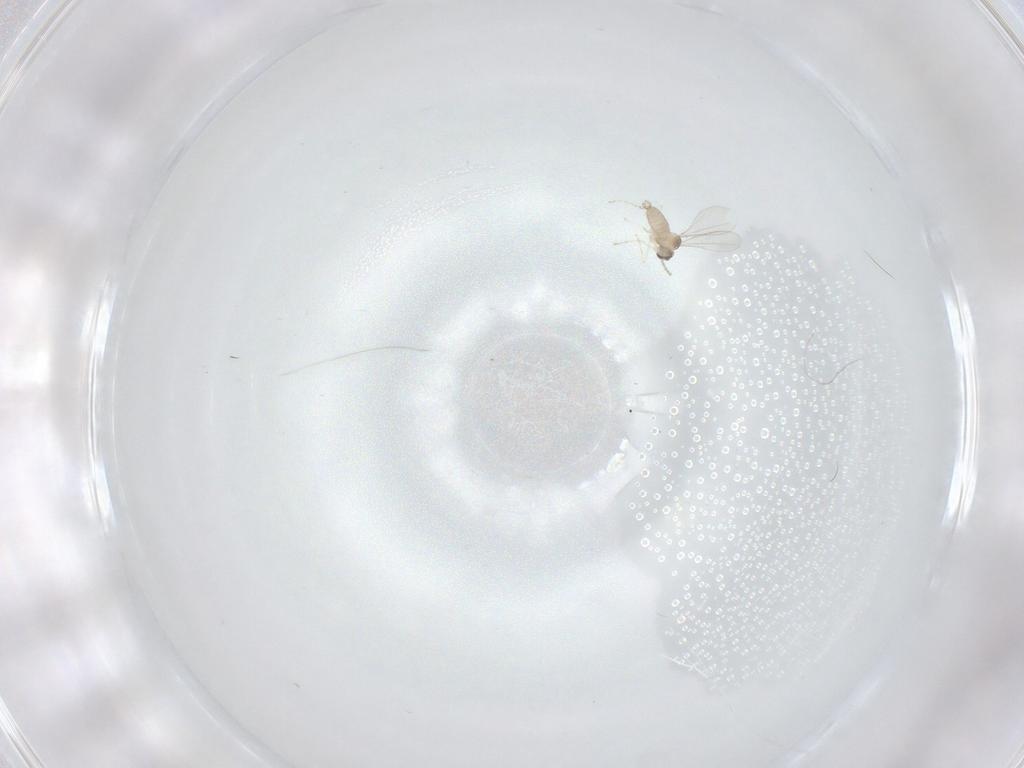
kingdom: Animalia
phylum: Arthropoda
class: Insecta
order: Diptera
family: Cecidomyiidae
